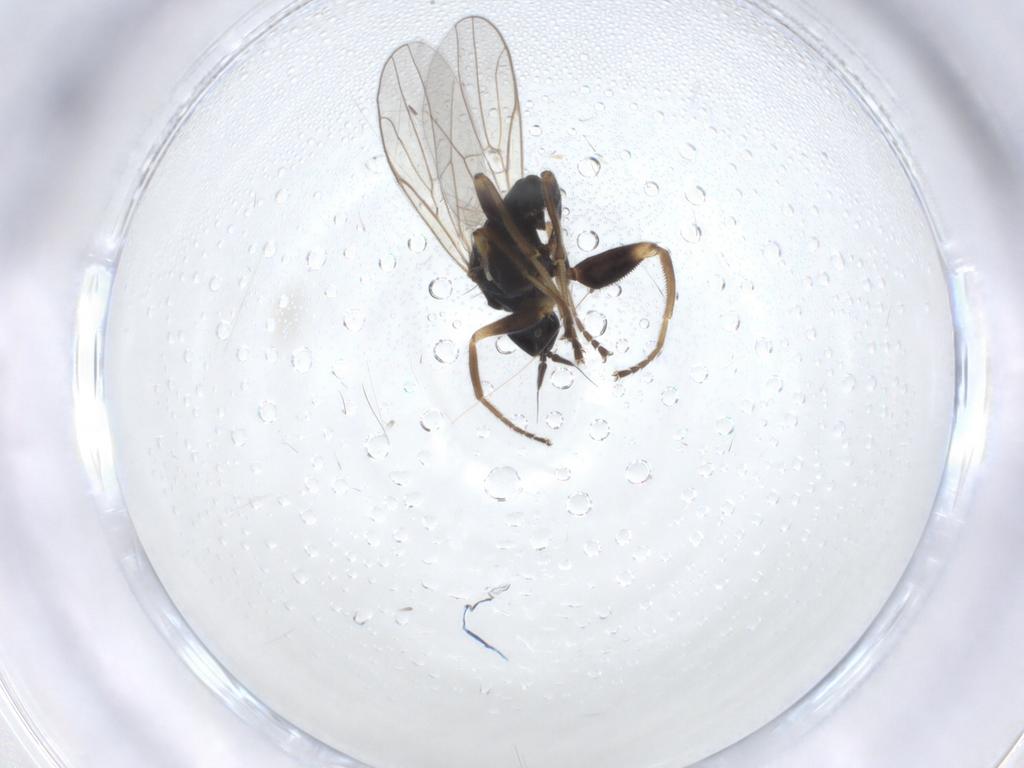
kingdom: Animalia
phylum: Arthropoda
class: Insecta
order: Diptera
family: Chironomidae
